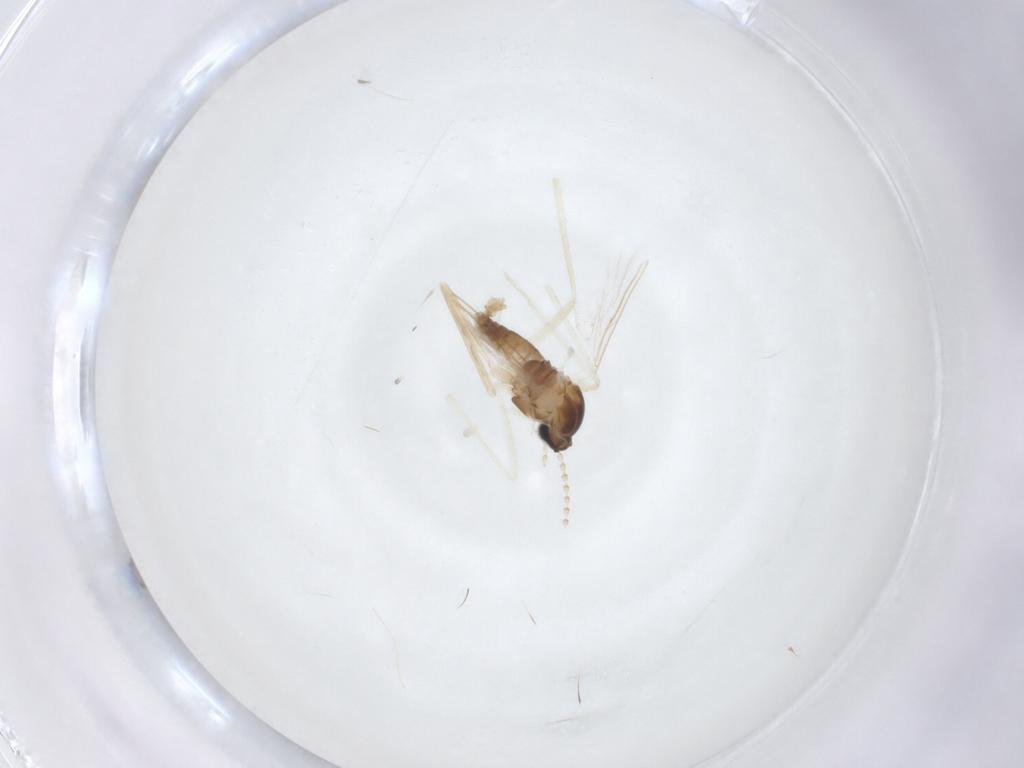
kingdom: Animalia
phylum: Arthropoda
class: Insecta
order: Diptera
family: Cecidomyiidae
